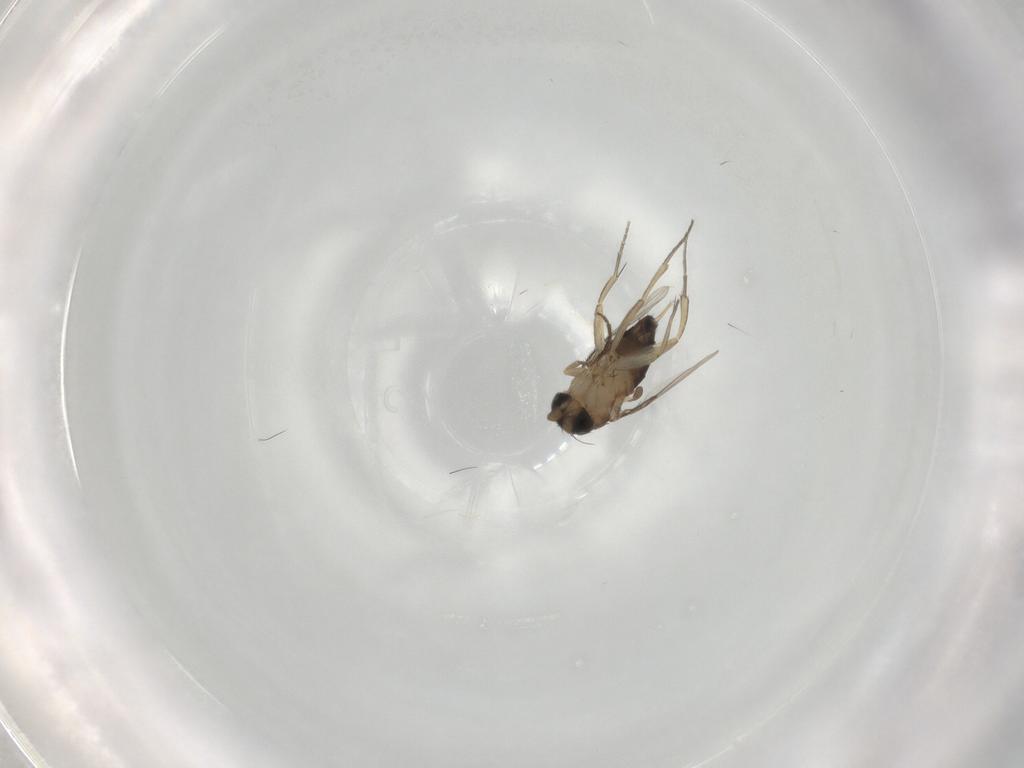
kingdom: Animalia
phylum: Arthropoda
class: Insecta
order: Diptera
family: Phoridae
